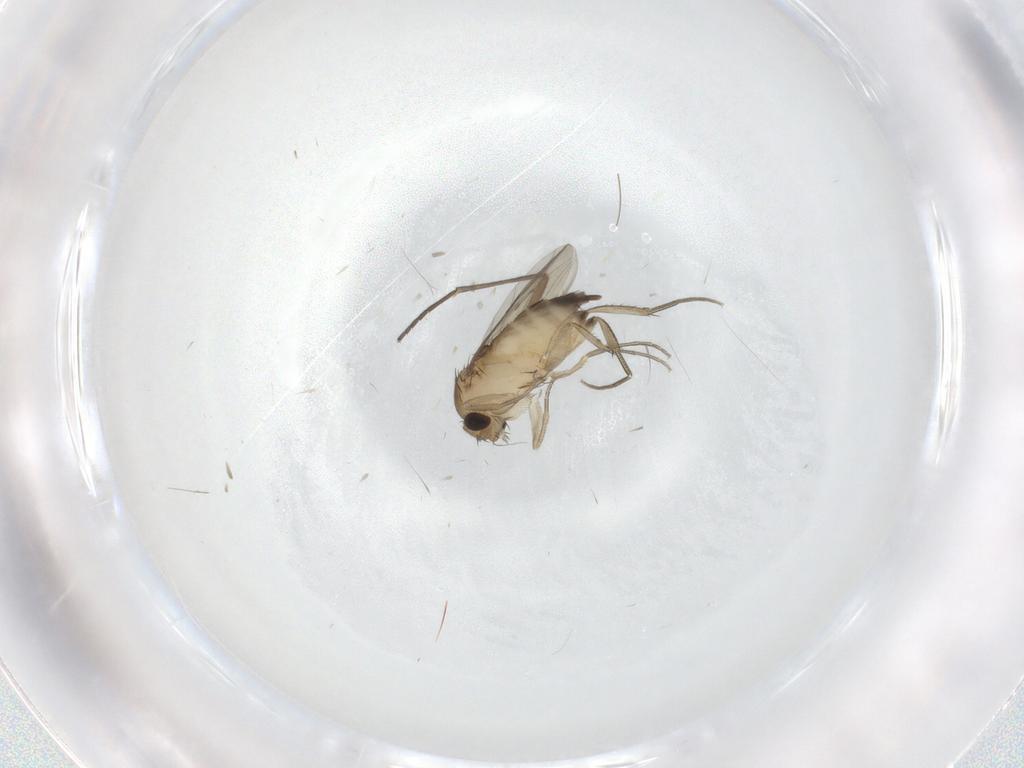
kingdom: Animalia
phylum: Arthropoda
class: Insecta
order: Diptera
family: Sciaridae
